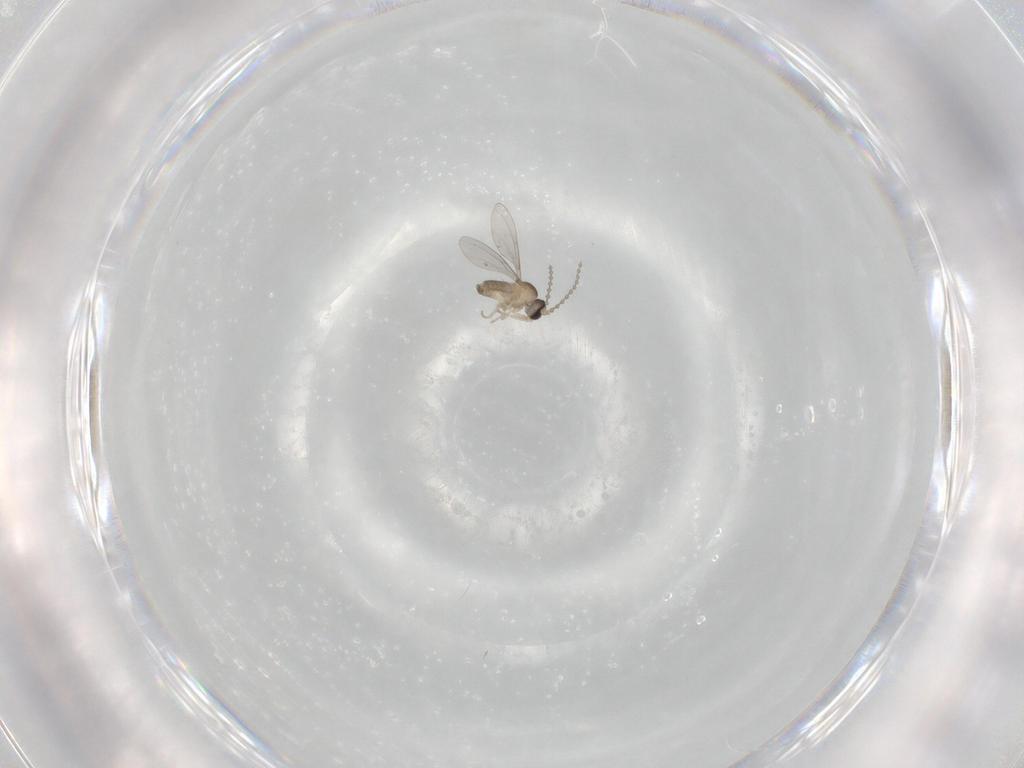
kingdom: Animalia
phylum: Arthropoda
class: Insecta
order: Diptera
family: Cecidomyiidae
